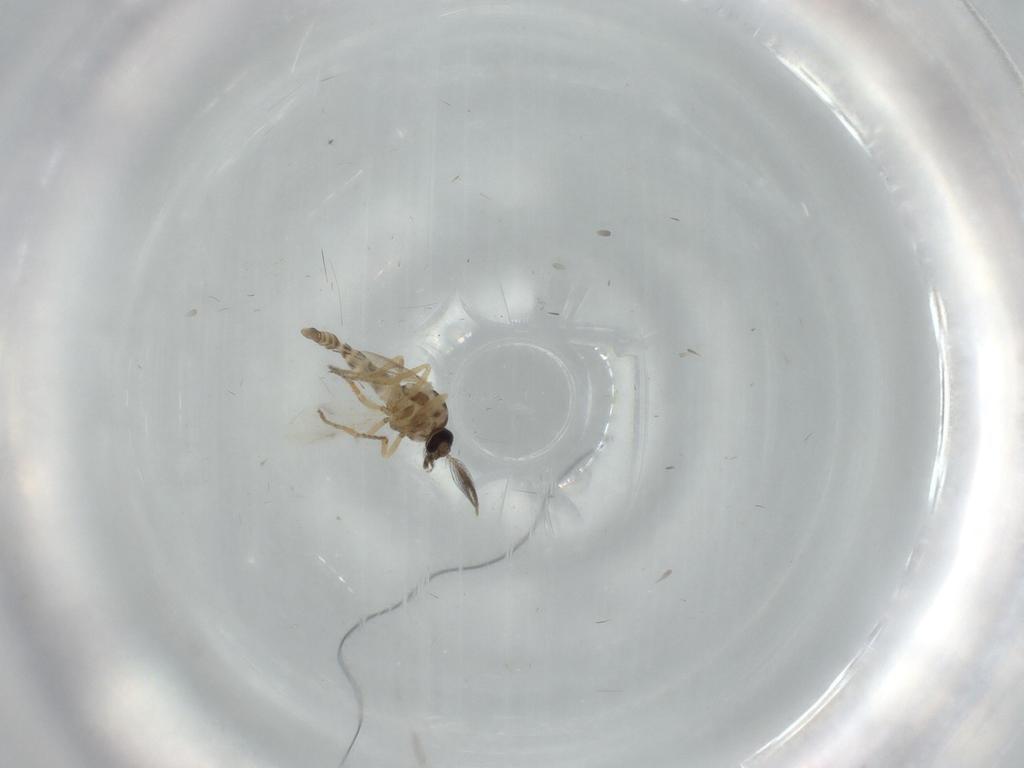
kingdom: Animalia
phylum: Arthropoda
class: Insecta
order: Diptera
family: Ceratopogonidae
